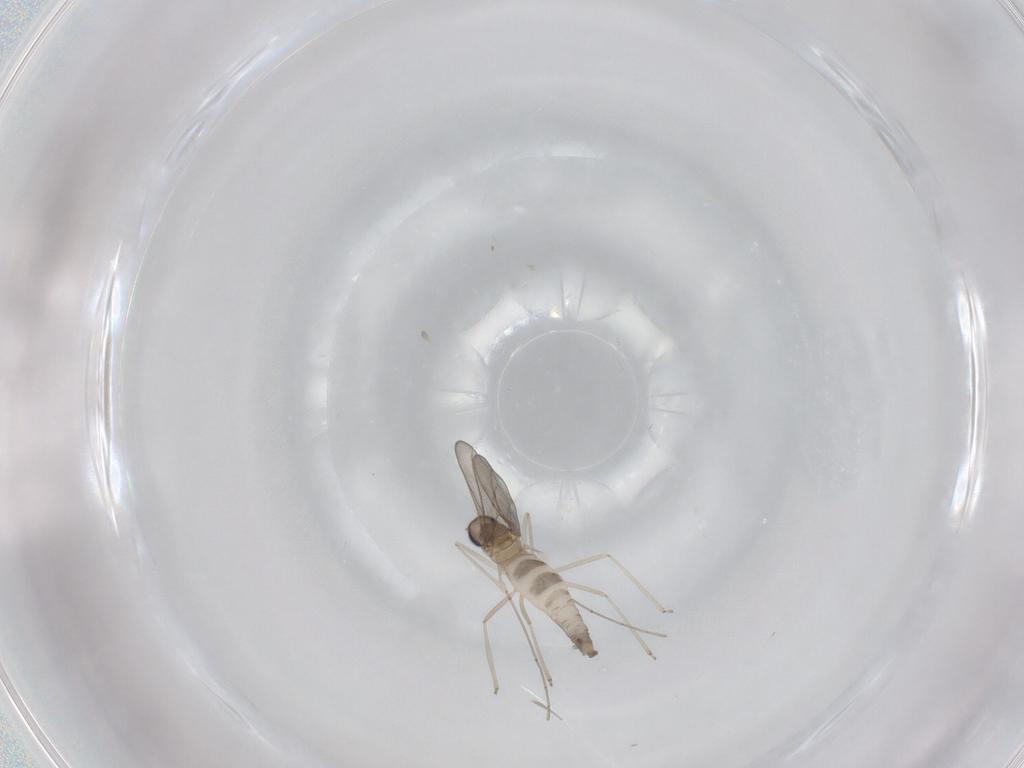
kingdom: Animalia
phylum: Arthropoda
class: Insecta
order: Diptera
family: Cecidomyiidae
